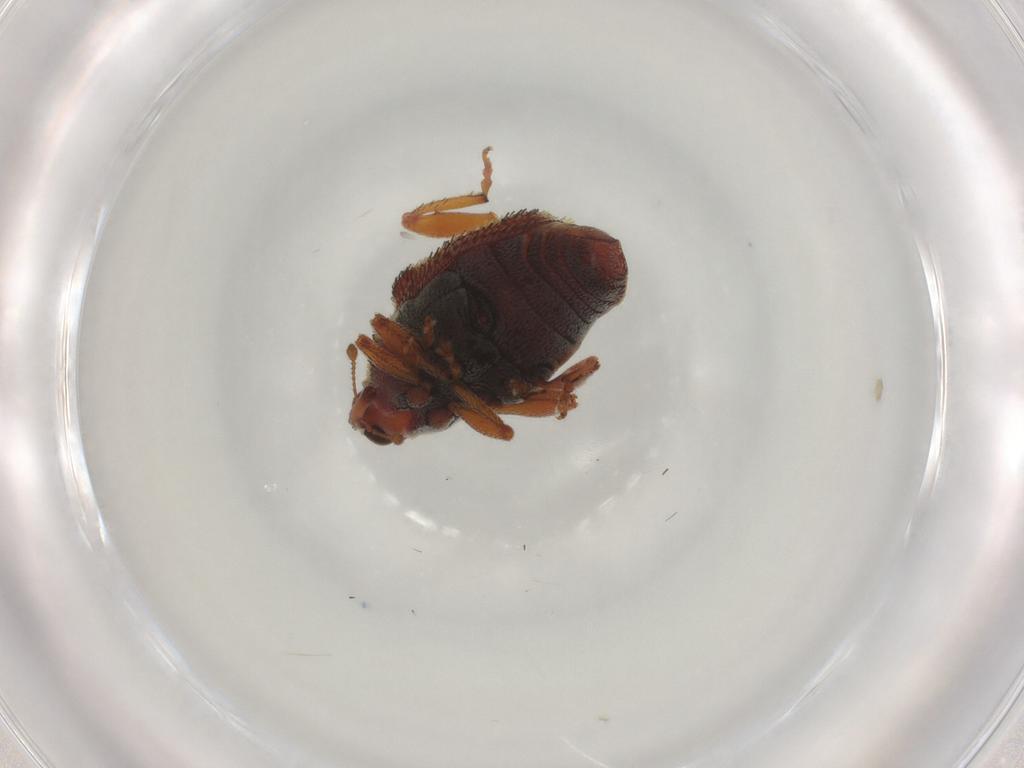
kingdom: Animalia
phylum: Arthropoda
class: Insecta
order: Coleoptera
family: Curculionidae
